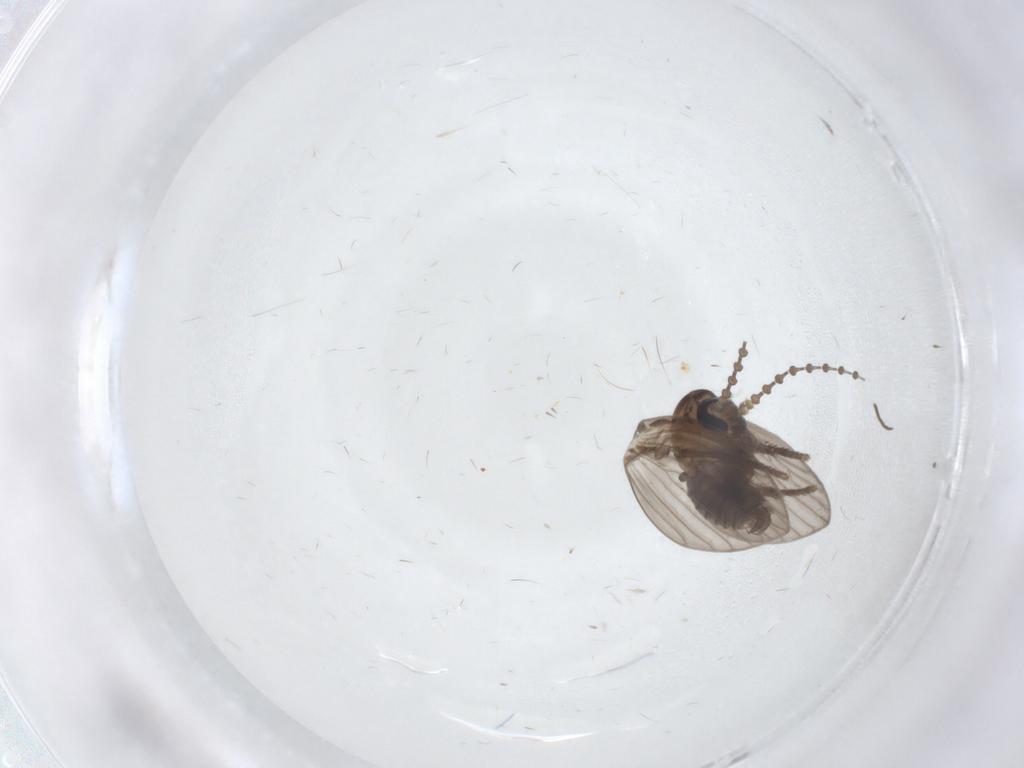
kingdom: Animalia
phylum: Arthropoda
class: Insecta
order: Diptera
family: Psychodidae
